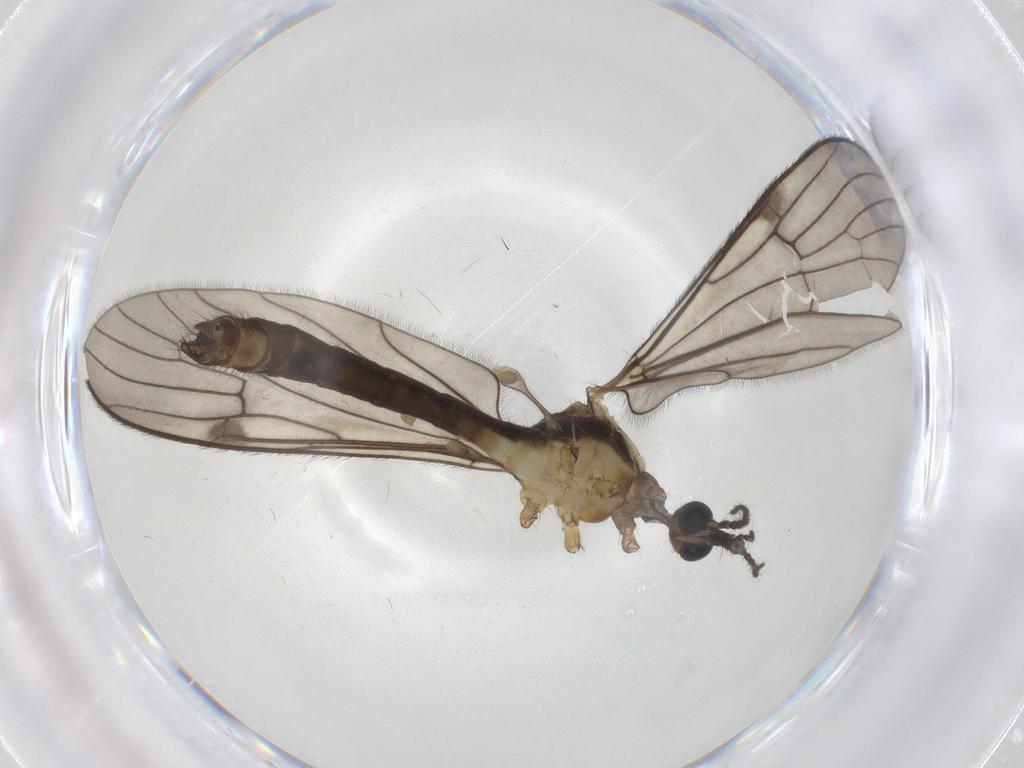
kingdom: Animalia
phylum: Arthropoda
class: Insecta
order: Diptera
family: Limoniidae
